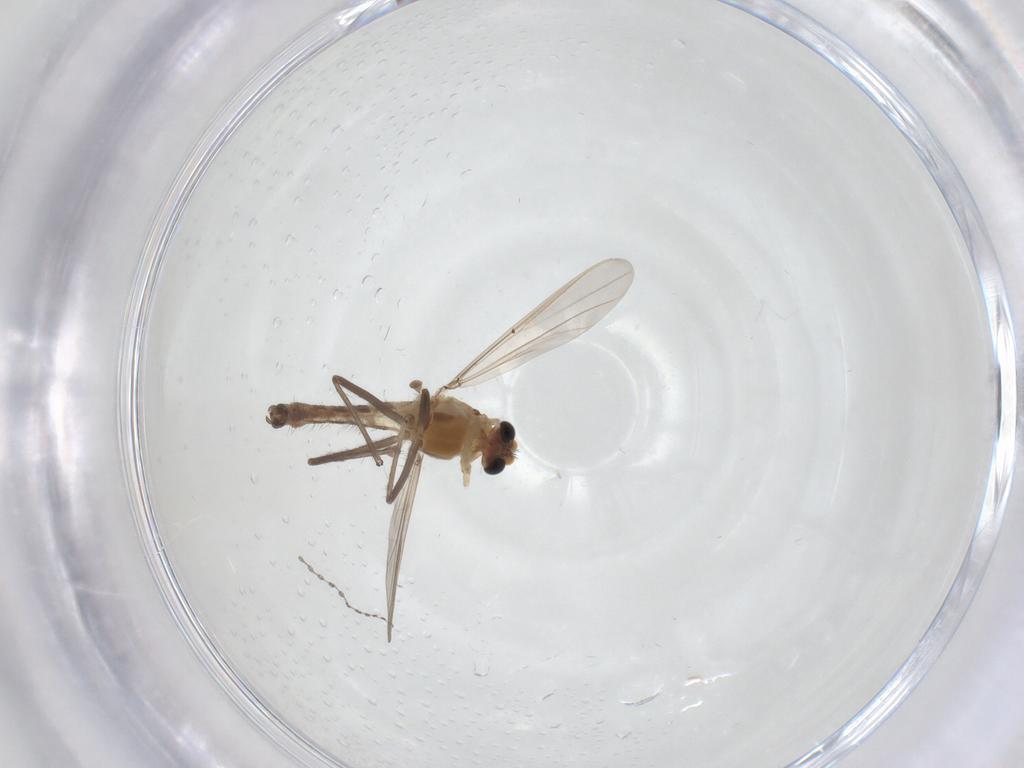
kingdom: Animalia
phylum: Arthropoda
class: Insecta
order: Diptera
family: Chironomidae
